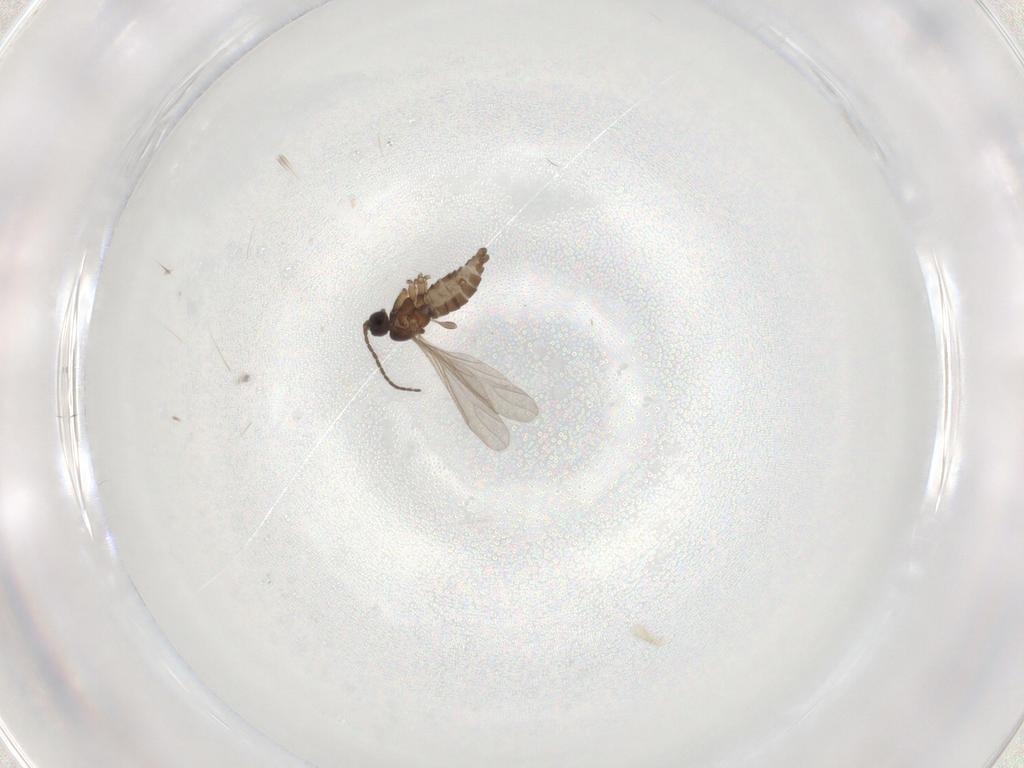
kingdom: Animalia
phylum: Arthropoda
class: Insecta
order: Diptera
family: Sciaridae
